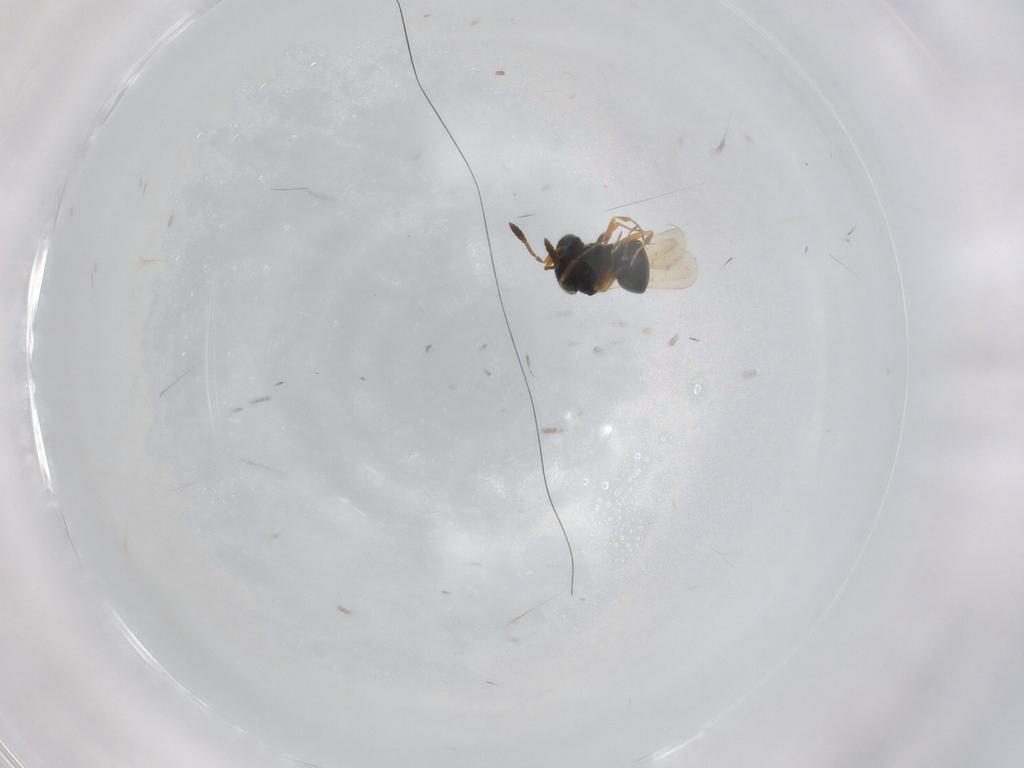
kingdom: Animalia
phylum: Arthropoda
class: Insecta
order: Hymenoptera
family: Scelionidae
